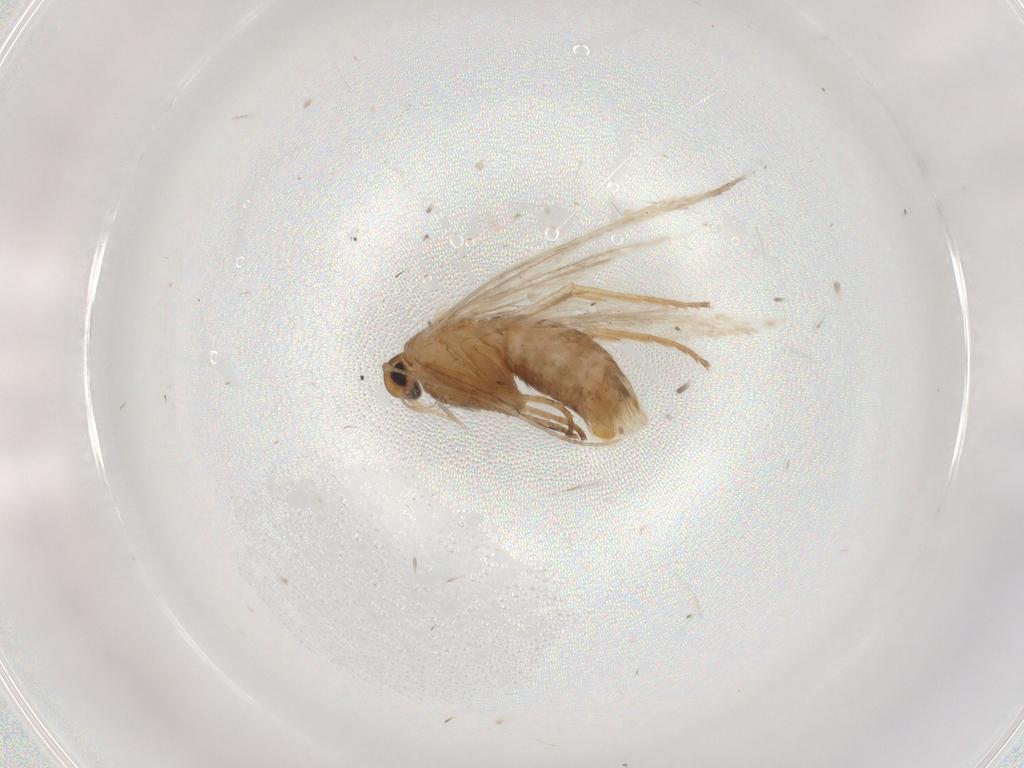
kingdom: Animalia
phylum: Arthropoda
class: Insecta
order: Lepidoptera
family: Gelechiidae
